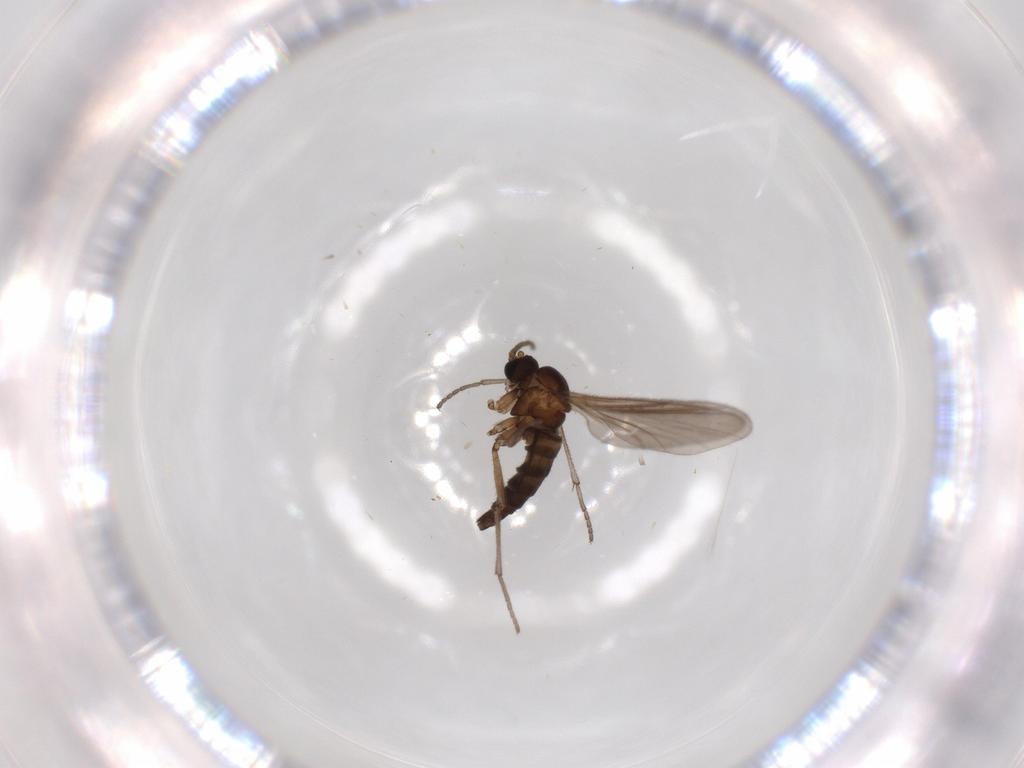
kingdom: Animalia
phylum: Arthropoda
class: Insecta
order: Diptera
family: Sciaridae
